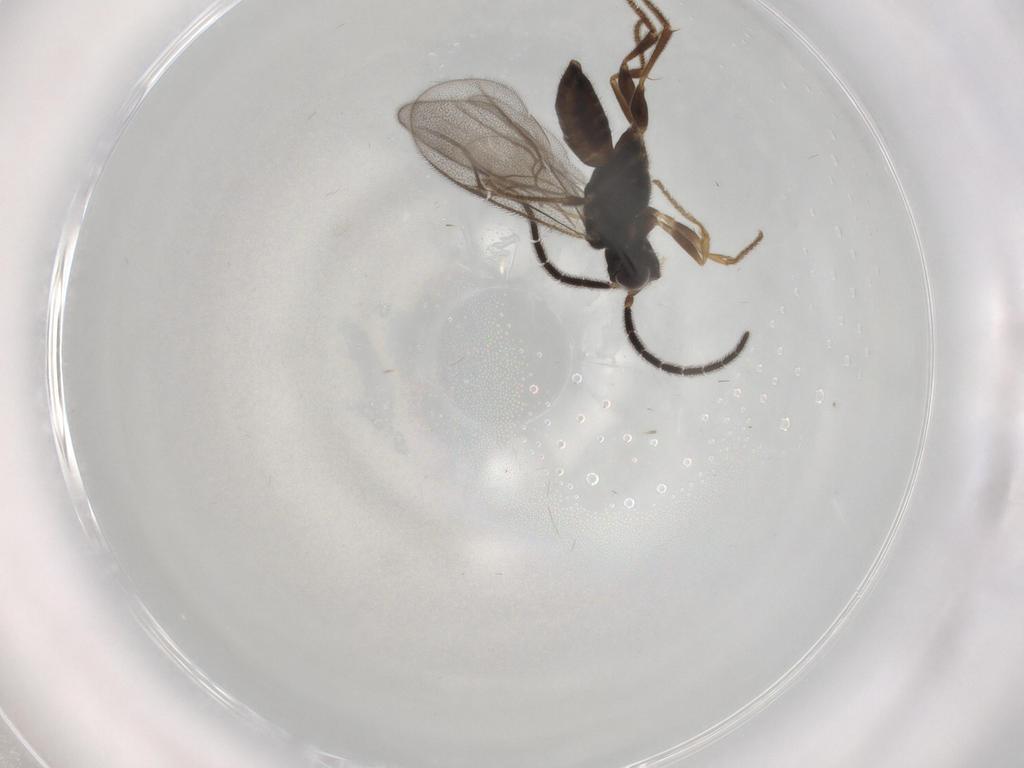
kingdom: Animalia
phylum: Arthropoda
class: Insecta
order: Hymenoptera
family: Dryinidae
